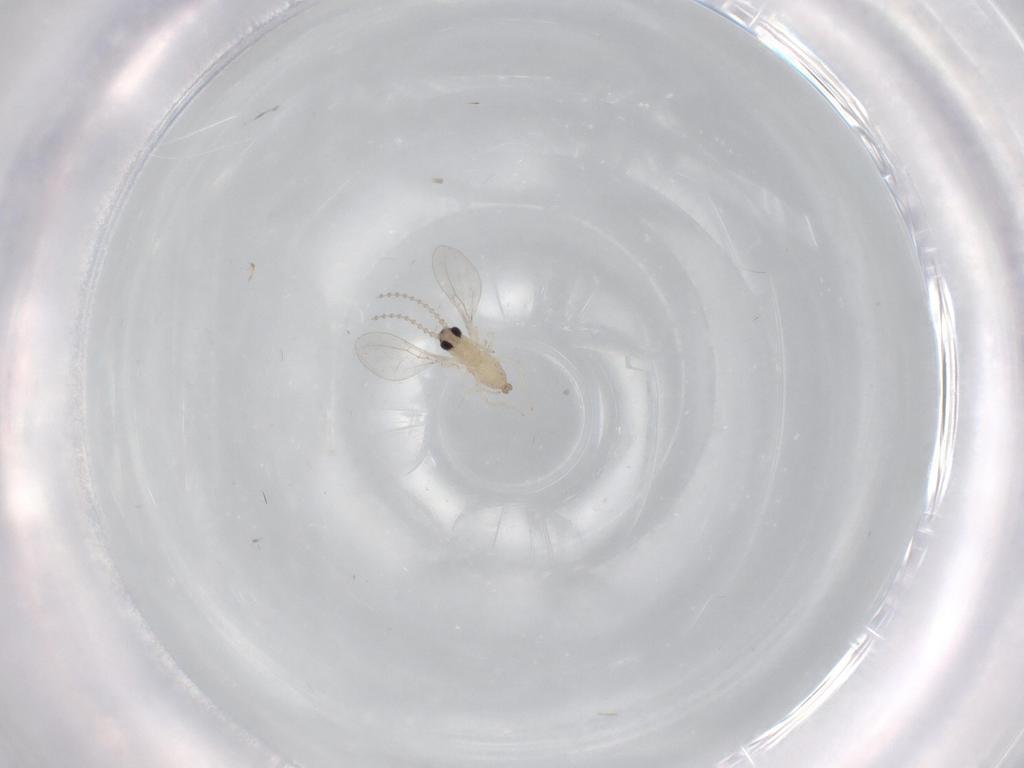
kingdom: Animalia
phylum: Arthropoda
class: Insecta
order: Diptera
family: Cecidomyiidae
